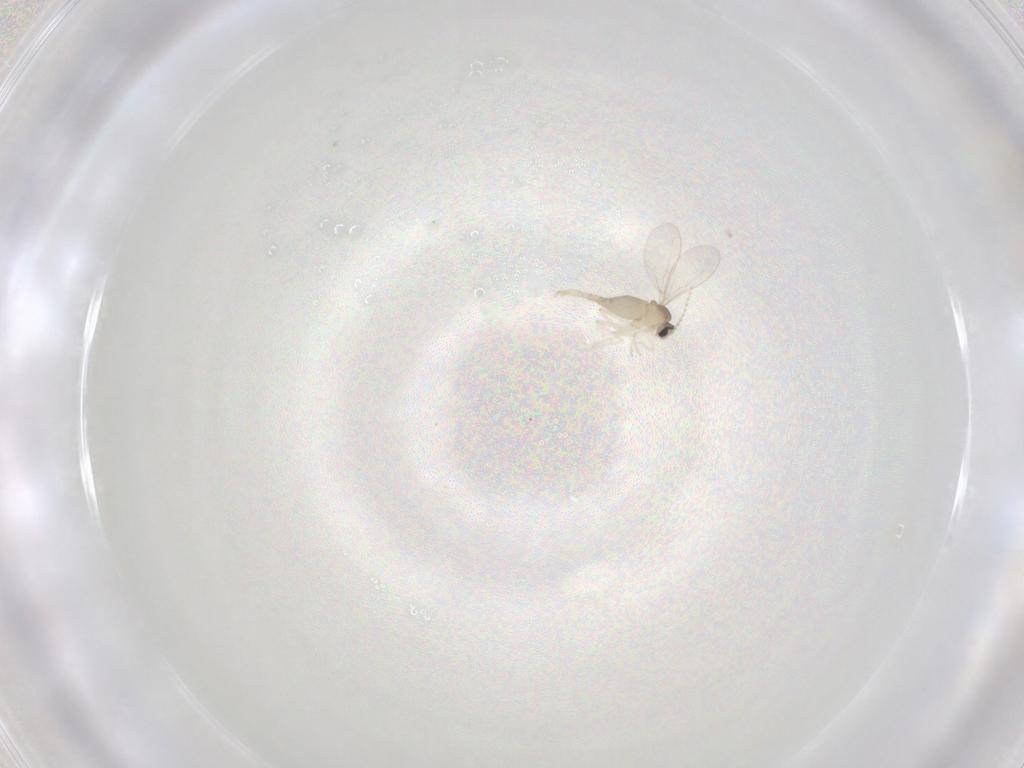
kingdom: Animalia
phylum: Arthropoda
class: Insecta
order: Diptera
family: Cecidomyiidae
